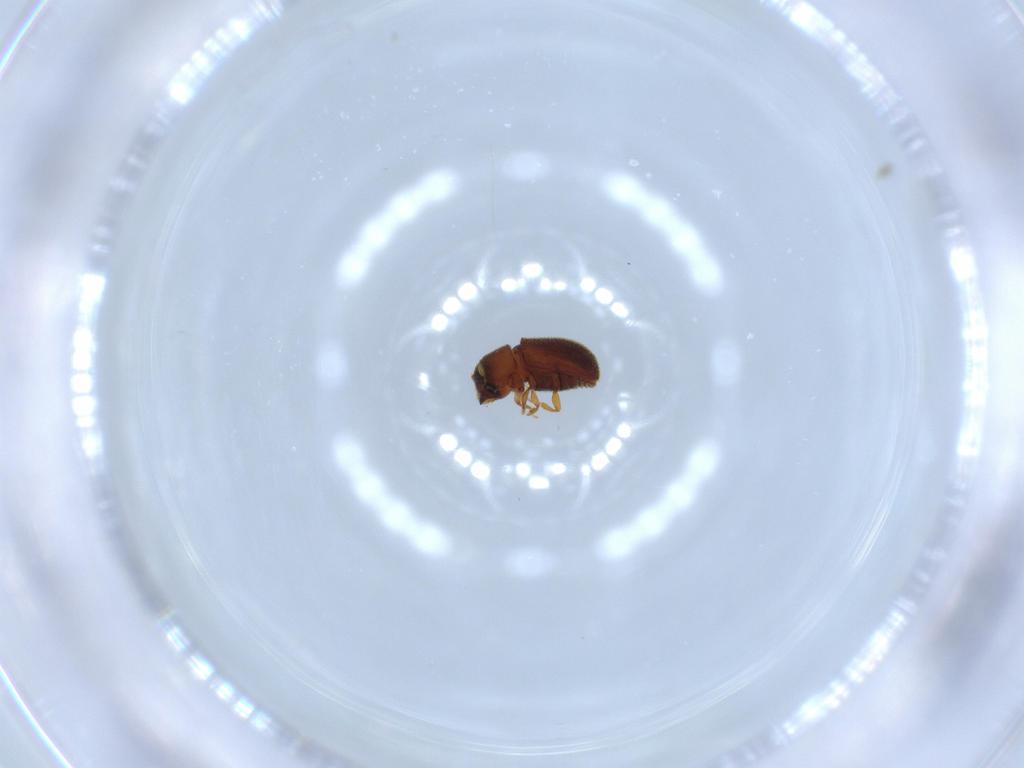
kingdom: Animalia
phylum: Arthropoda
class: Insecta
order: Coleoptera
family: Curculionidae
